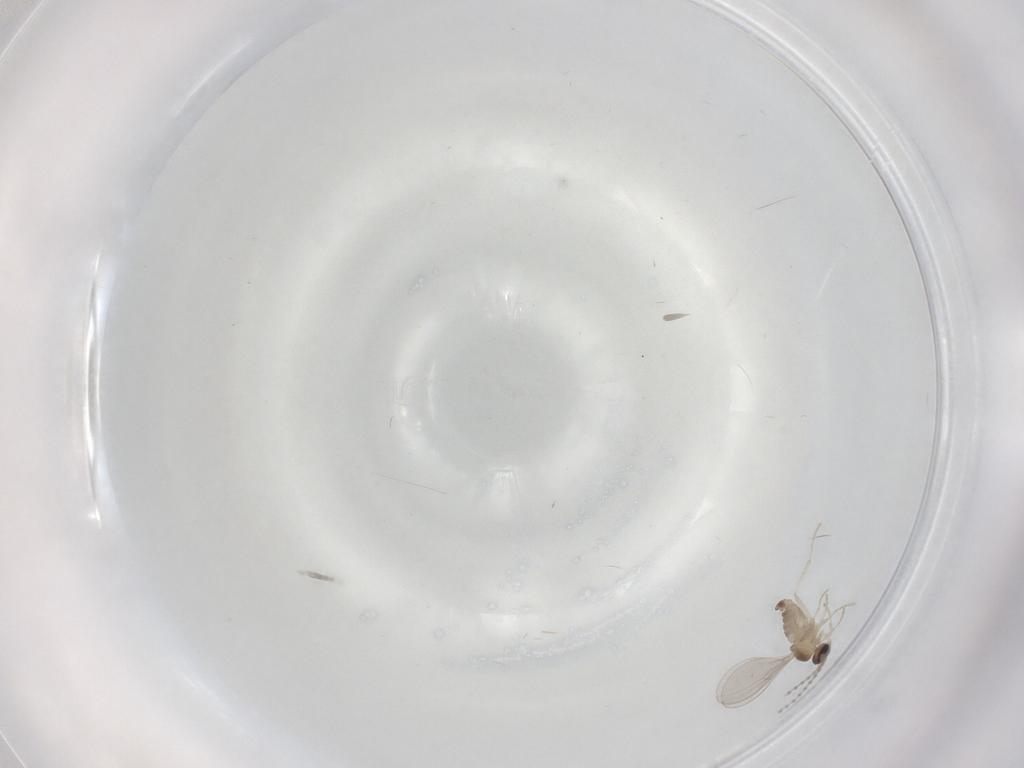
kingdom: Animalia
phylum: Arthropoda
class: Insecta
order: Diptera
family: Cecidomyiidae
